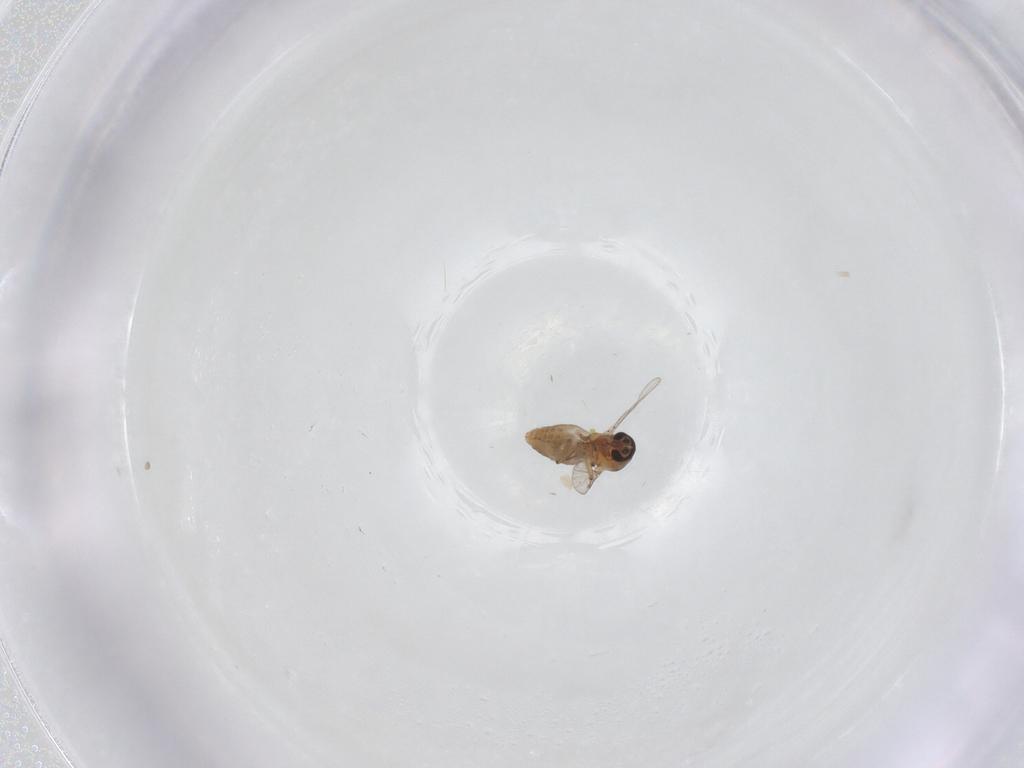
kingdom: Animalia
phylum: Arthropoda
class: Insecta
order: Diptera
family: Ceratopogonidae
